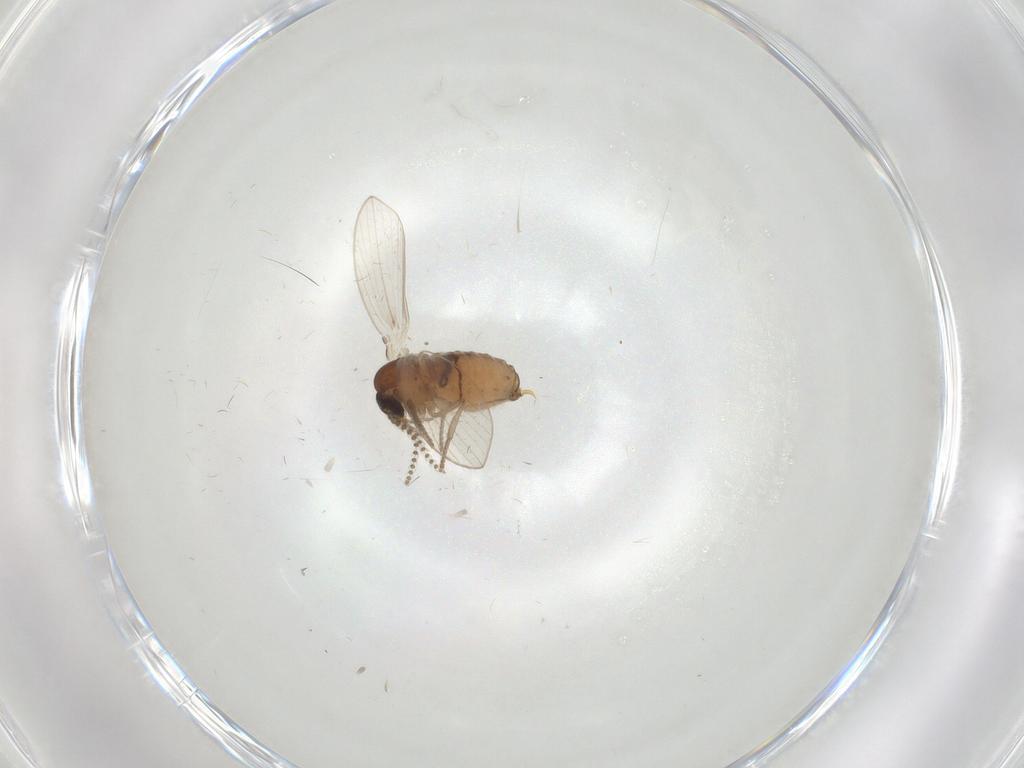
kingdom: Animalia
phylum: Arthropoda
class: Insecta
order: Diptera
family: Psychodidae
